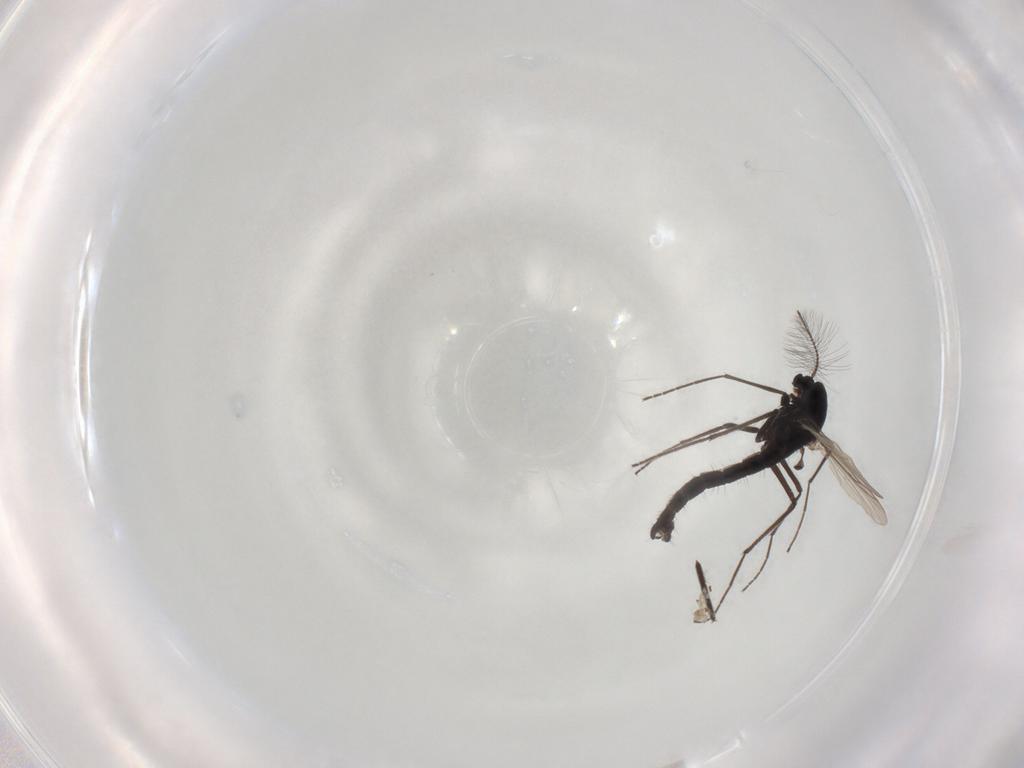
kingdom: Animalia
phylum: Arthropoda
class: Insecta
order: Diptera
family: Chironomidae
